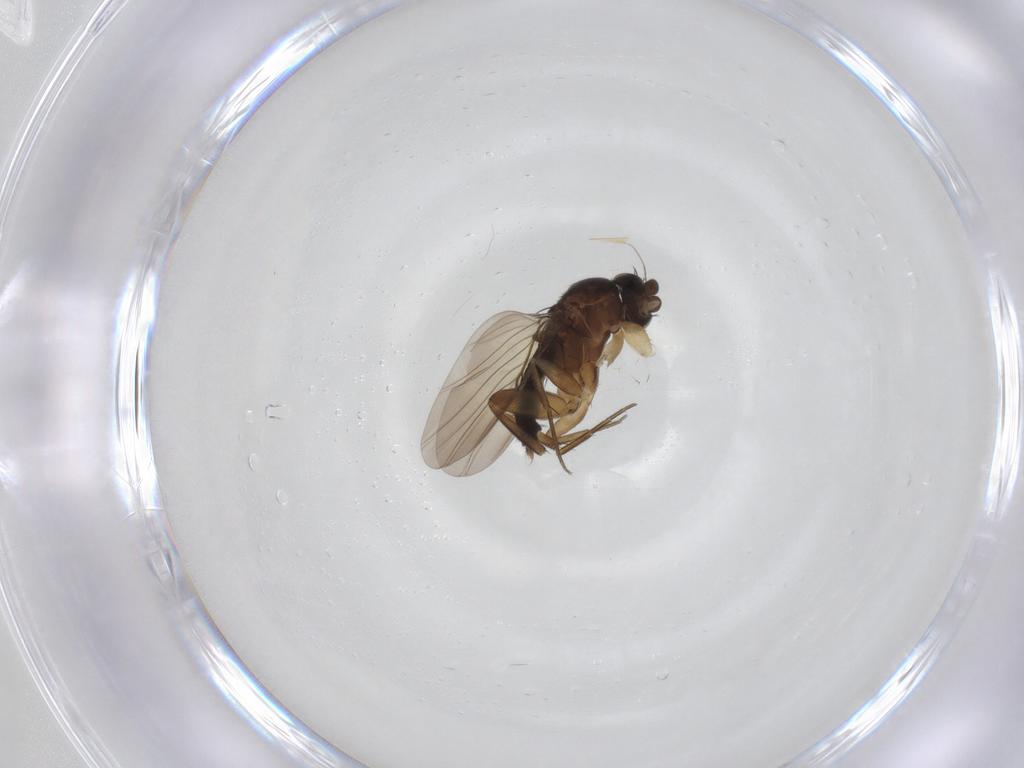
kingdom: Animalia
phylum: Arthropoda
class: Insecta
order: Diptera
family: Phoridae
